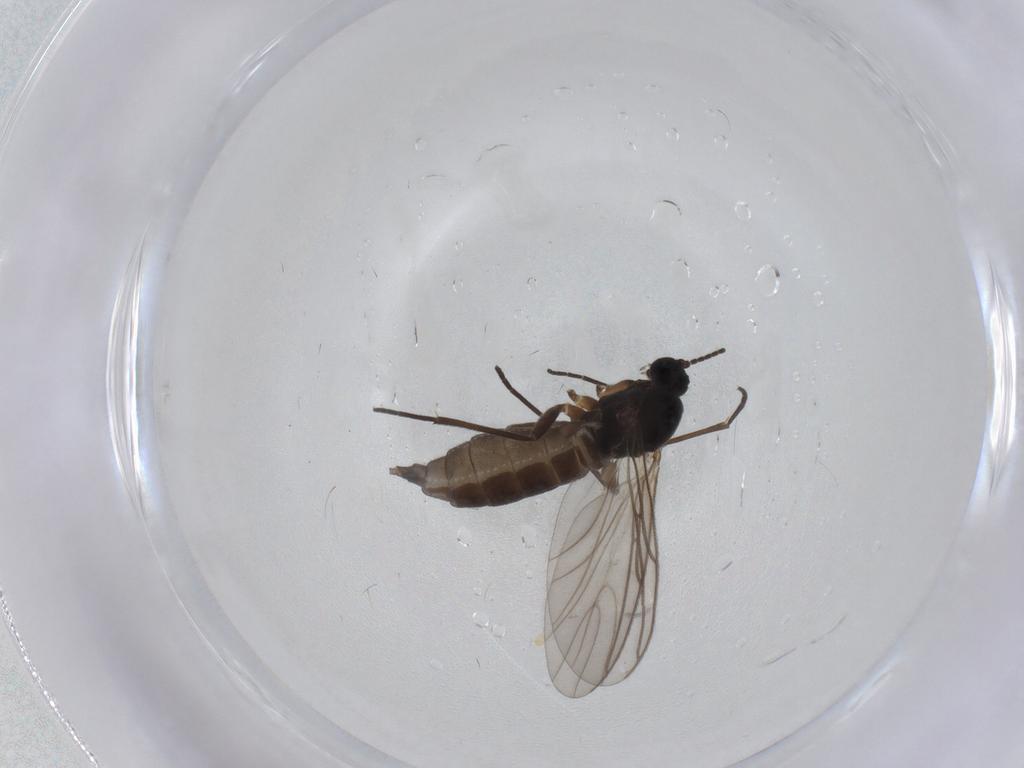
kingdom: Animalia
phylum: Arthropoda
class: Insecta
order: Diptera
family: Sciaridae
